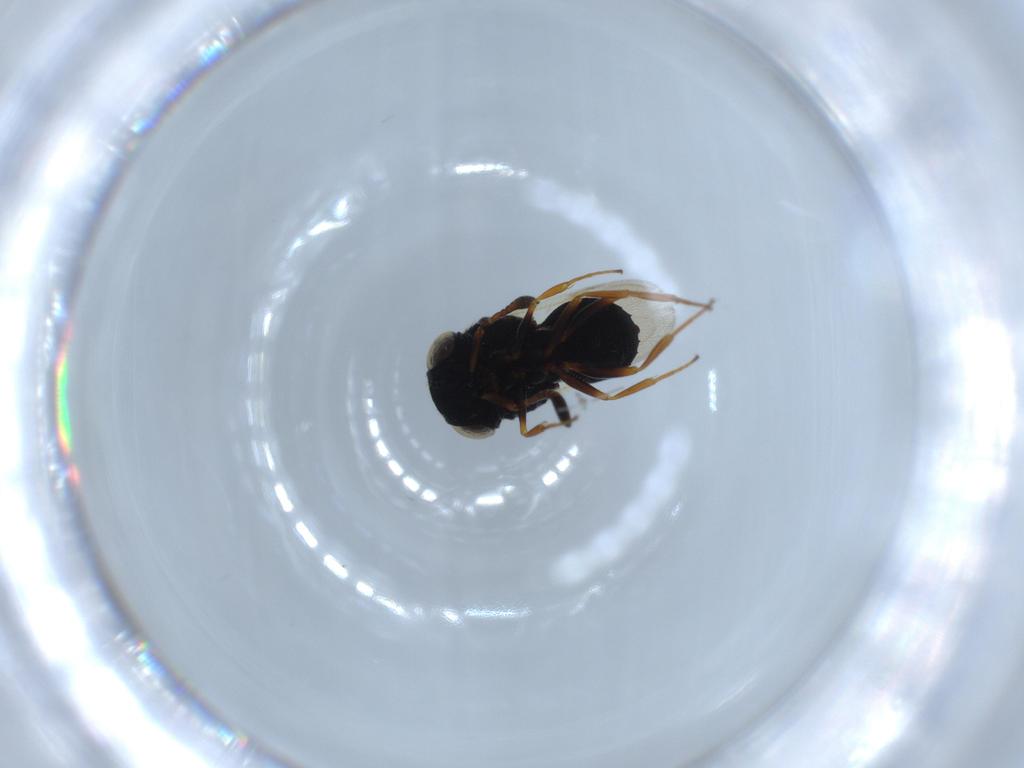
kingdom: Animalia
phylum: Arthropoda
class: Insecta
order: Hymenoptera
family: Scelionidae
